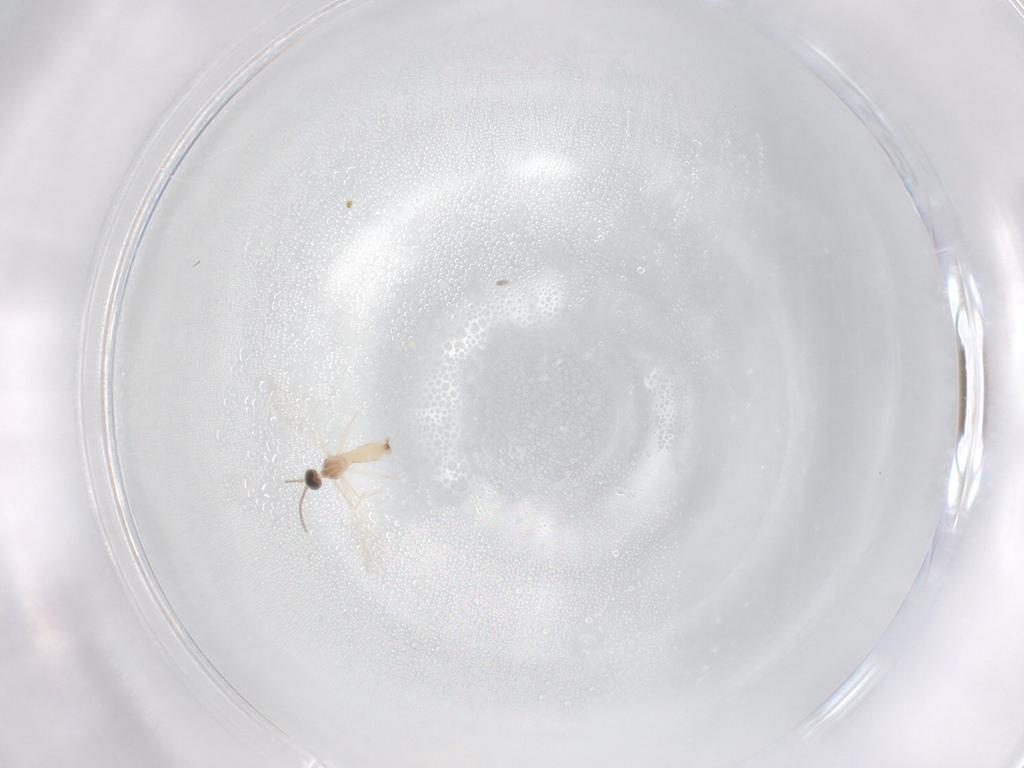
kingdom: Animalia
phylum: Arthropoda
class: Insecta
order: Diptera
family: Cecidomyiidae
